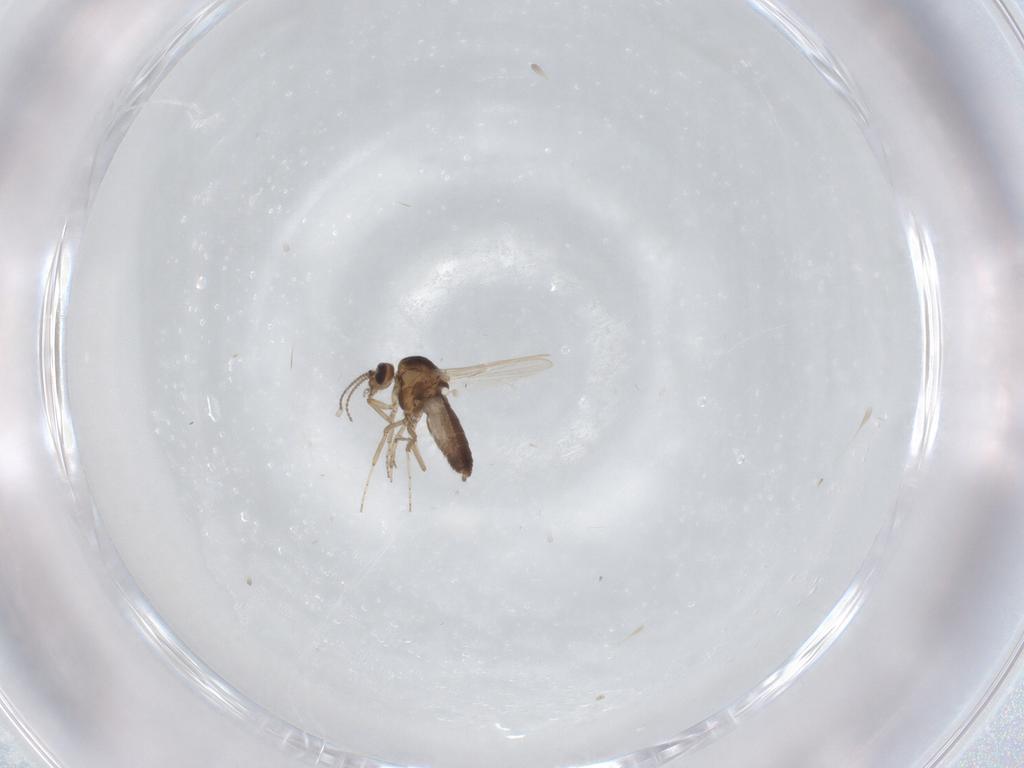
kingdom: Animalia
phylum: Arthropoda
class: Insecta
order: Diptera
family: Ceratopogonidae
